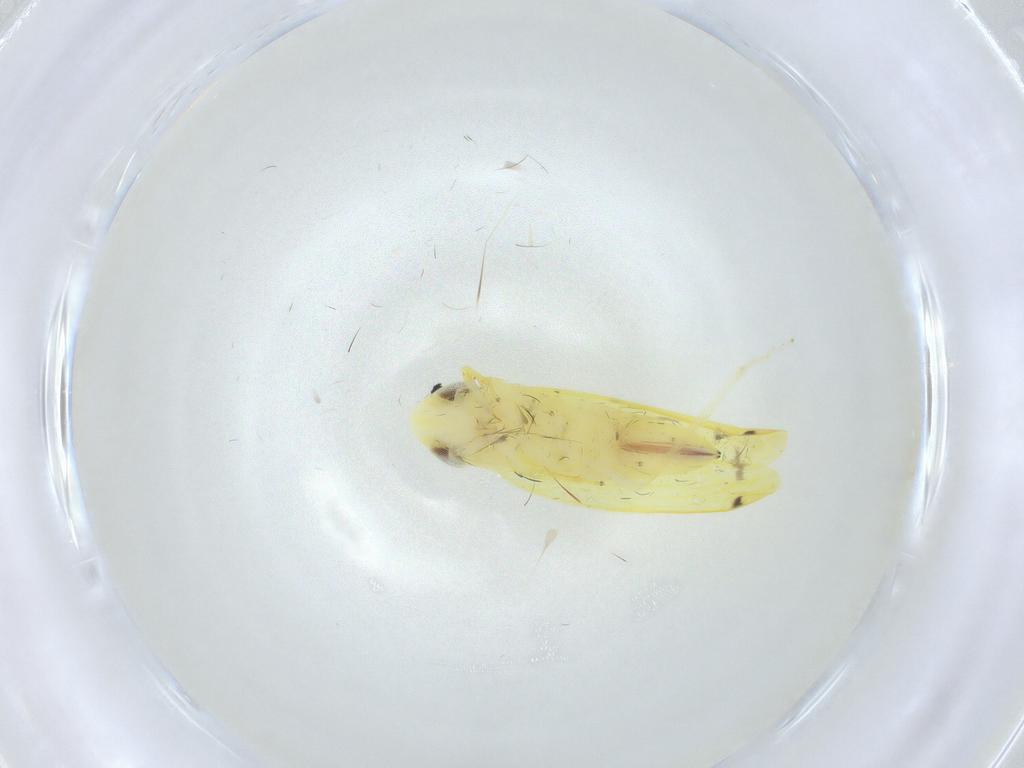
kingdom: Animalia
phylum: Arthropoda
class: Insecta
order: Hemiptera
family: Cicadellidae
